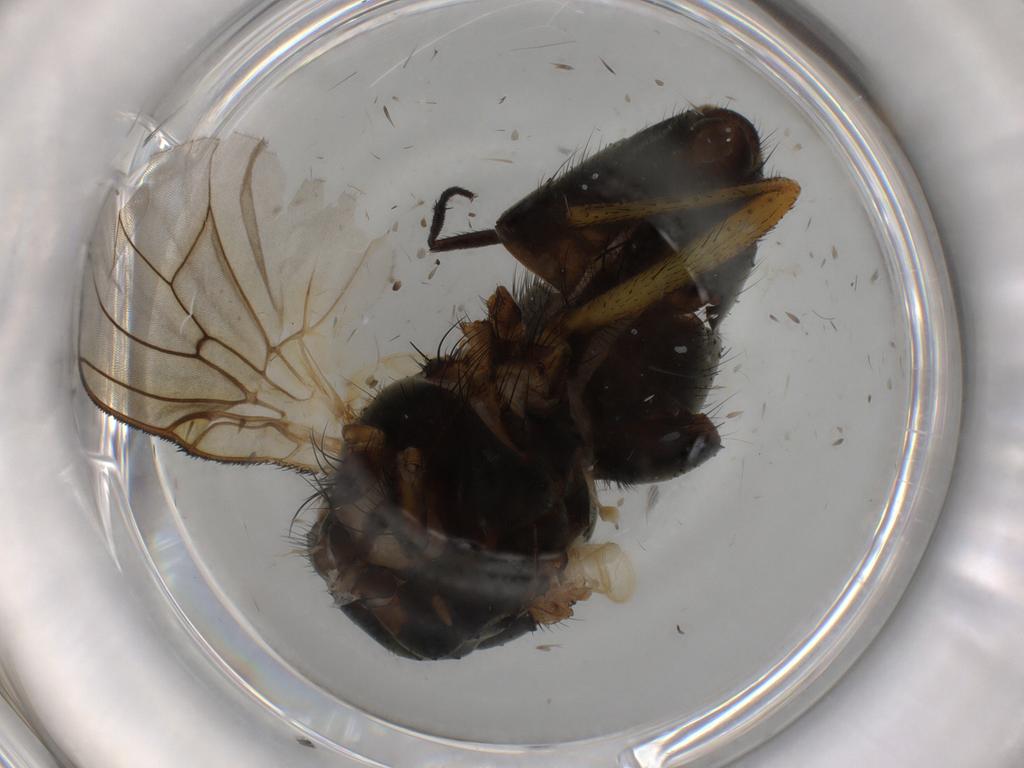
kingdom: Animalia
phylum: Arthropoda
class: Insecta
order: Diptera
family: Muscidae
